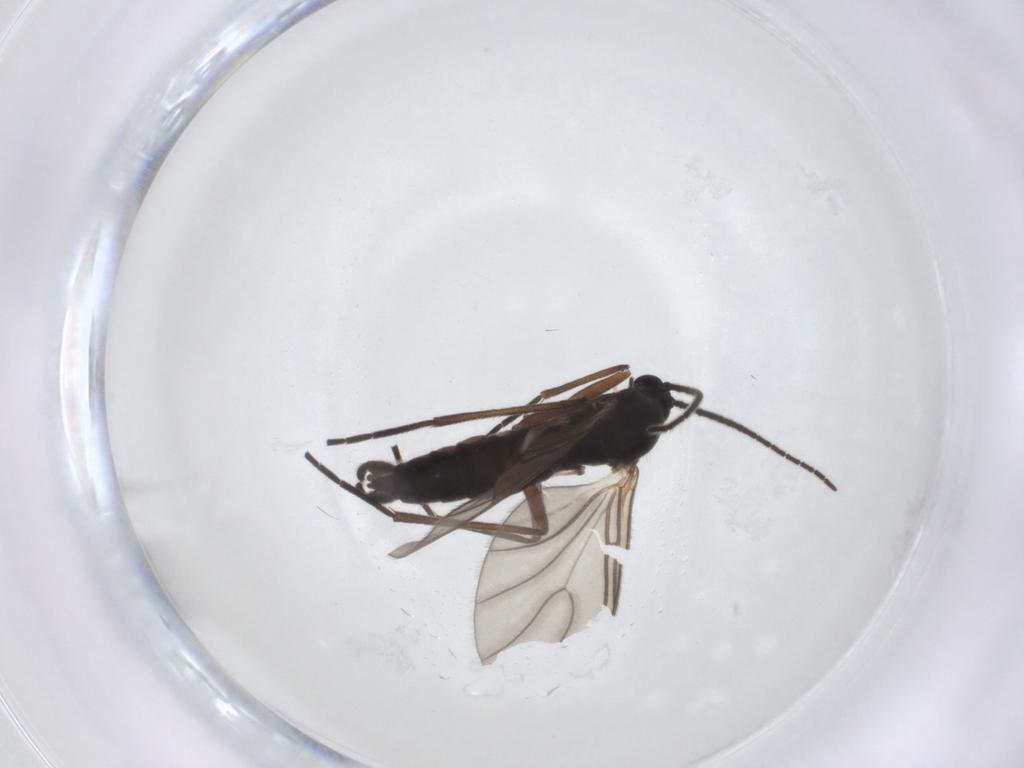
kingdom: Animalia
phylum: Arthropoda
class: Insecta
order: Diptera
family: Sciaridae
